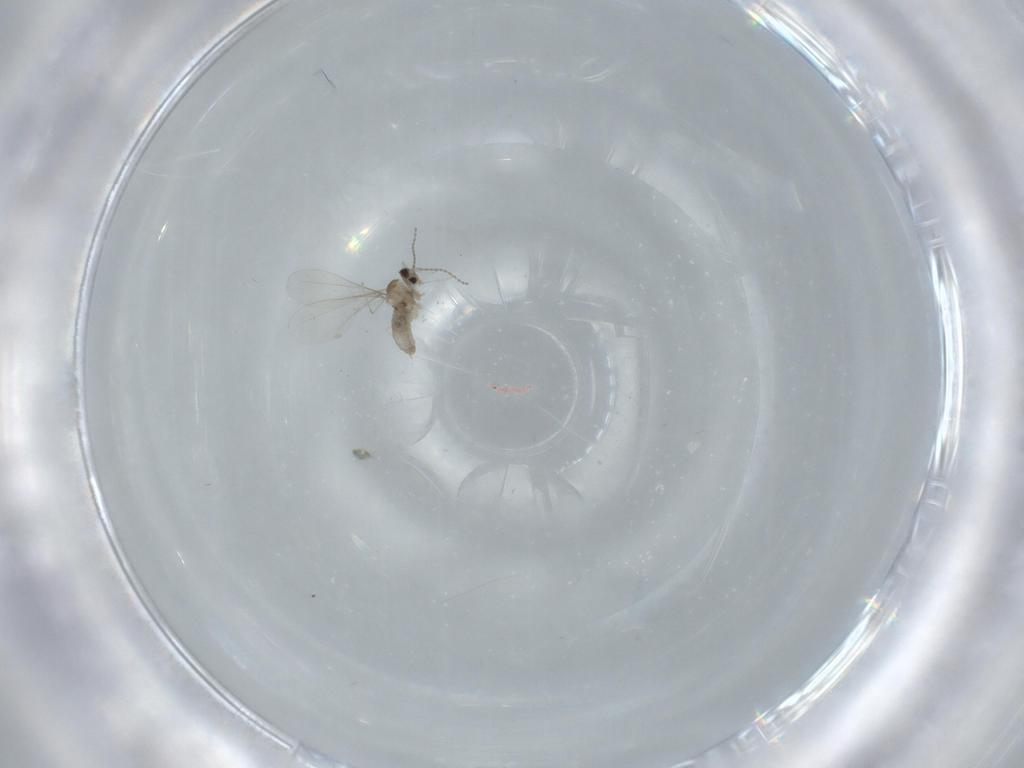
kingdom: Animalia
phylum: Arthropoda
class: Insecta
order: Diptera
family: Cecidomyiidae
